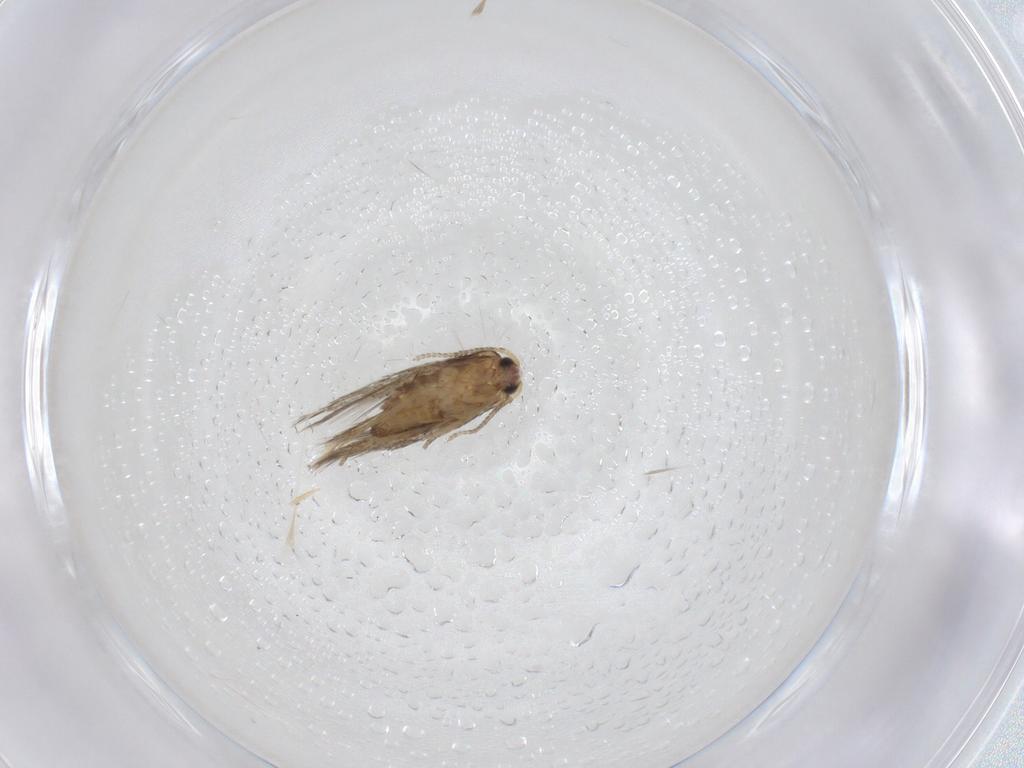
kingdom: Animalia
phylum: Arthropoda
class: Insecta
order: Lepidoptera
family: Nepticulidae
